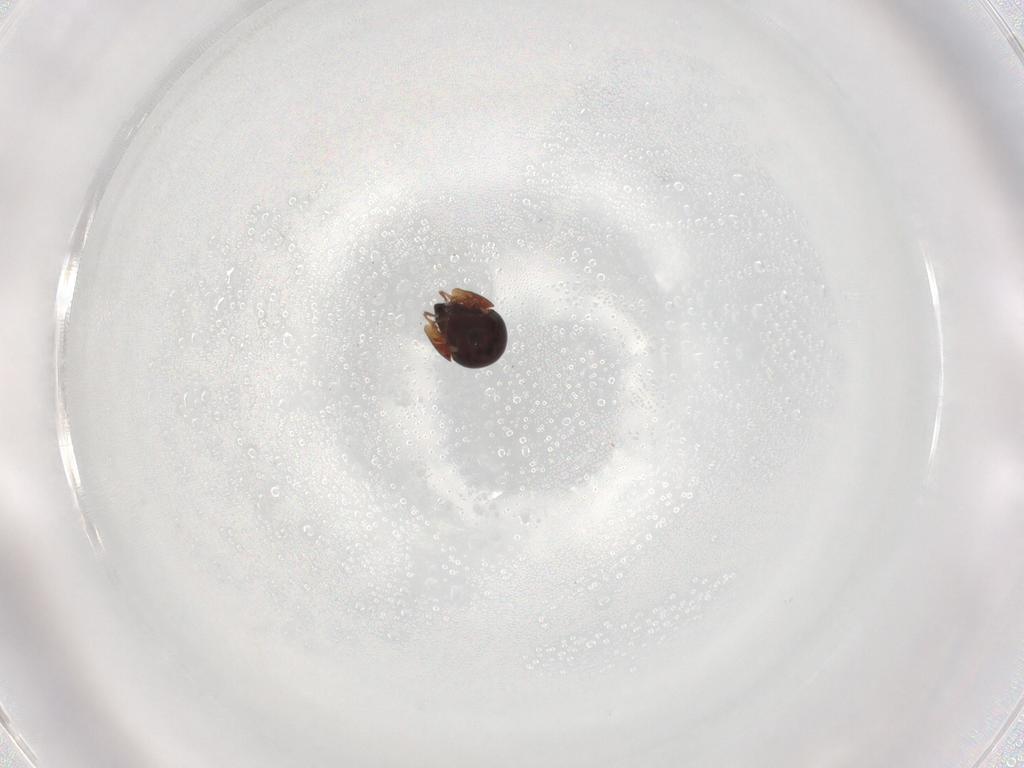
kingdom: Animalia
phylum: Arthropoda
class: Arachnida
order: Sarcoptiformes
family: Ceratozetidae
